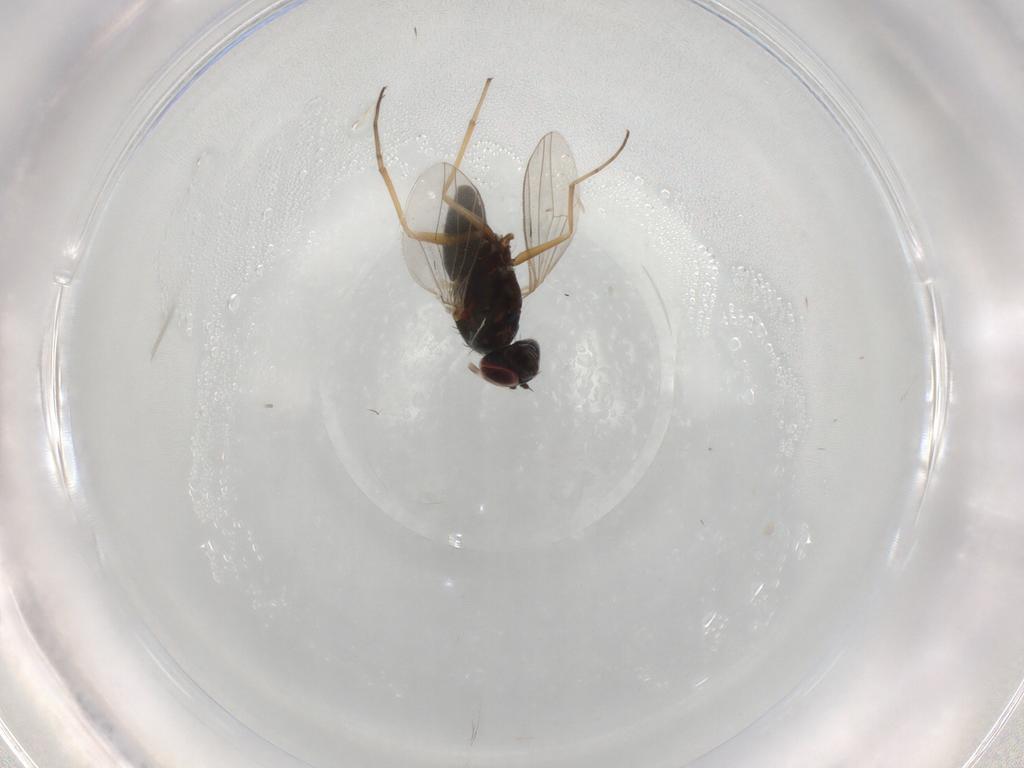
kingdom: Animalia
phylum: Arthropoda
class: Insecta
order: Diptera
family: Dolichopodidae
